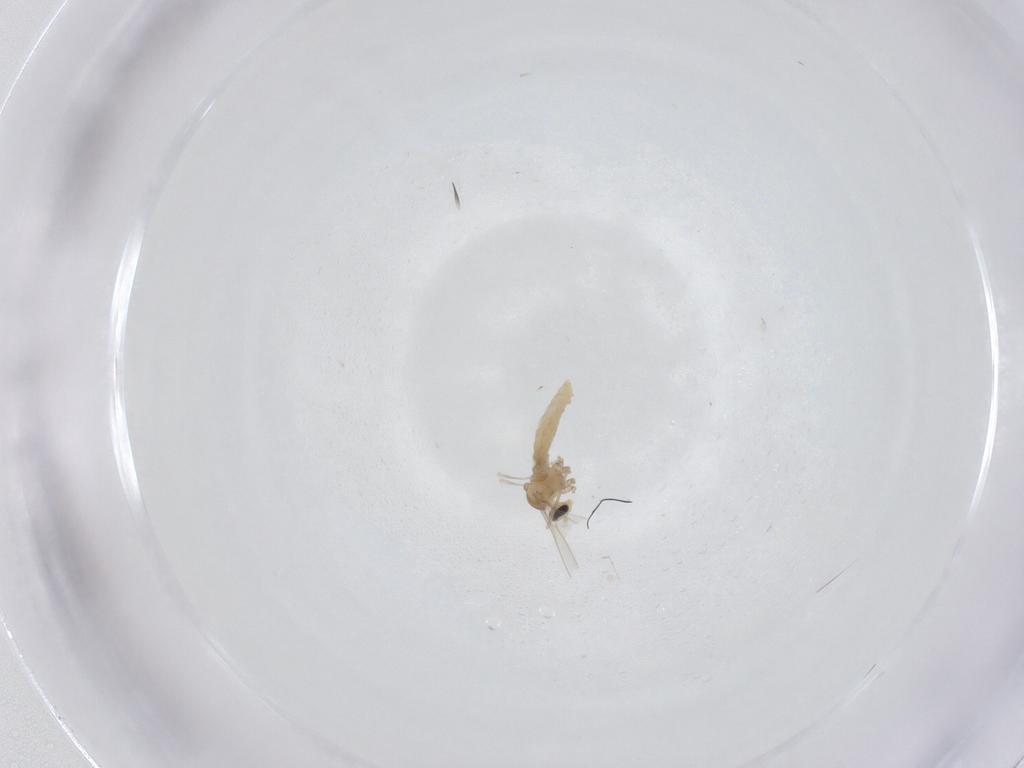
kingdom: Animalia
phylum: Arthropoda
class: Insecta
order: Diptera
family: Cecidomyiidae
